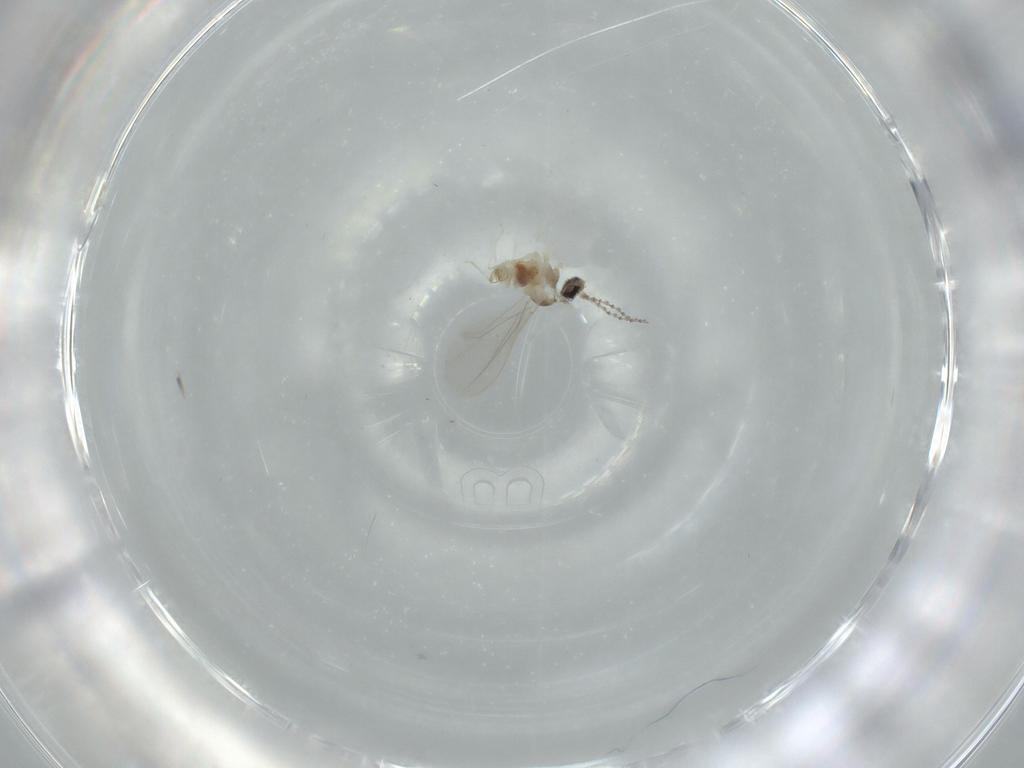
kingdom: Animalia
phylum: Arthropoda
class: Insecta
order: Diptera
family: Cecidomyiidae
